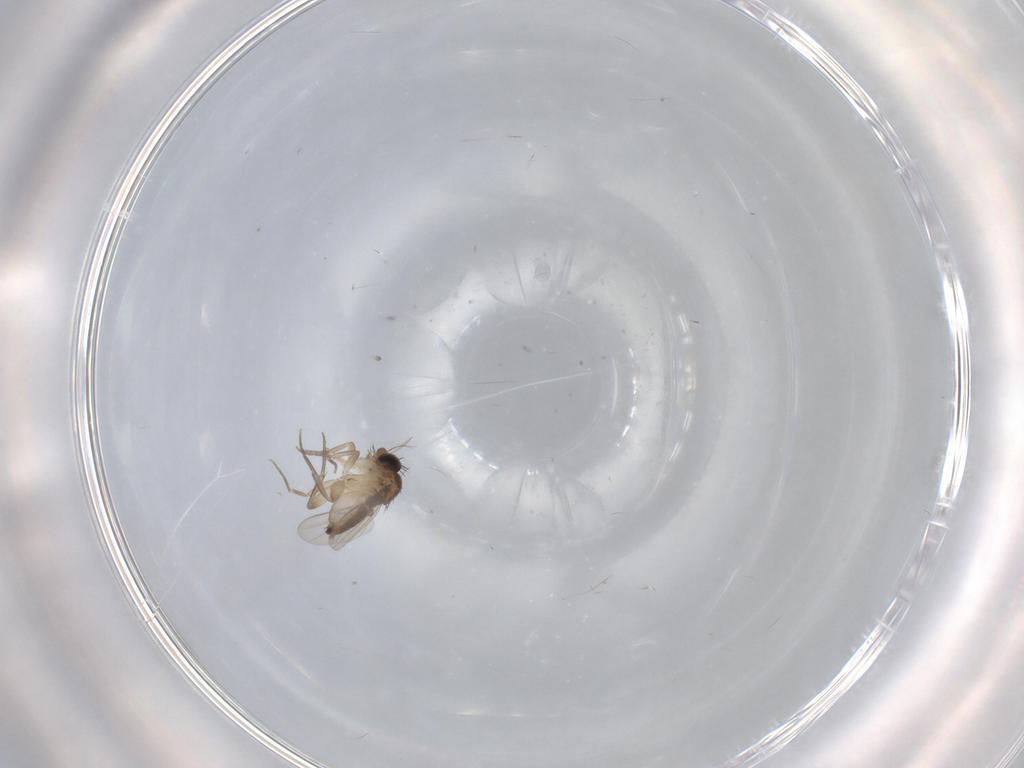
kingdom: Animalia
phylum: Arthropoda
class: Insecta
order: Diptera
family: Phoridae
